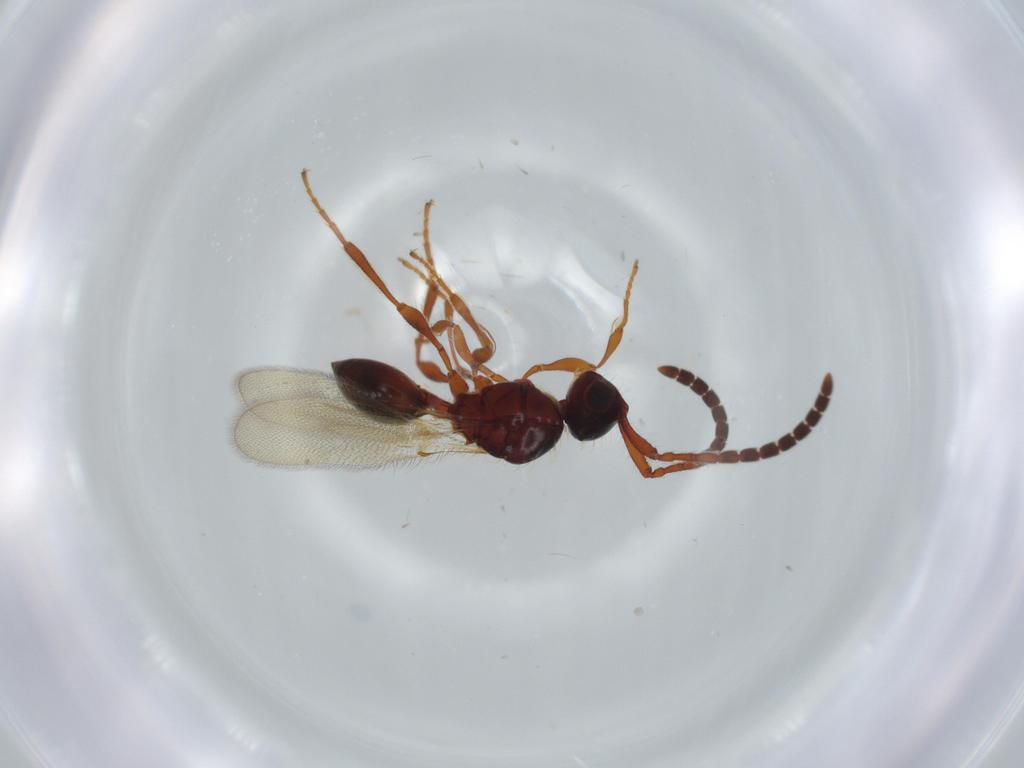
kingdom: Animalia
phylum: Arthropoda
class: Insecta
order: Hymenoptera
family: Diapriidae
